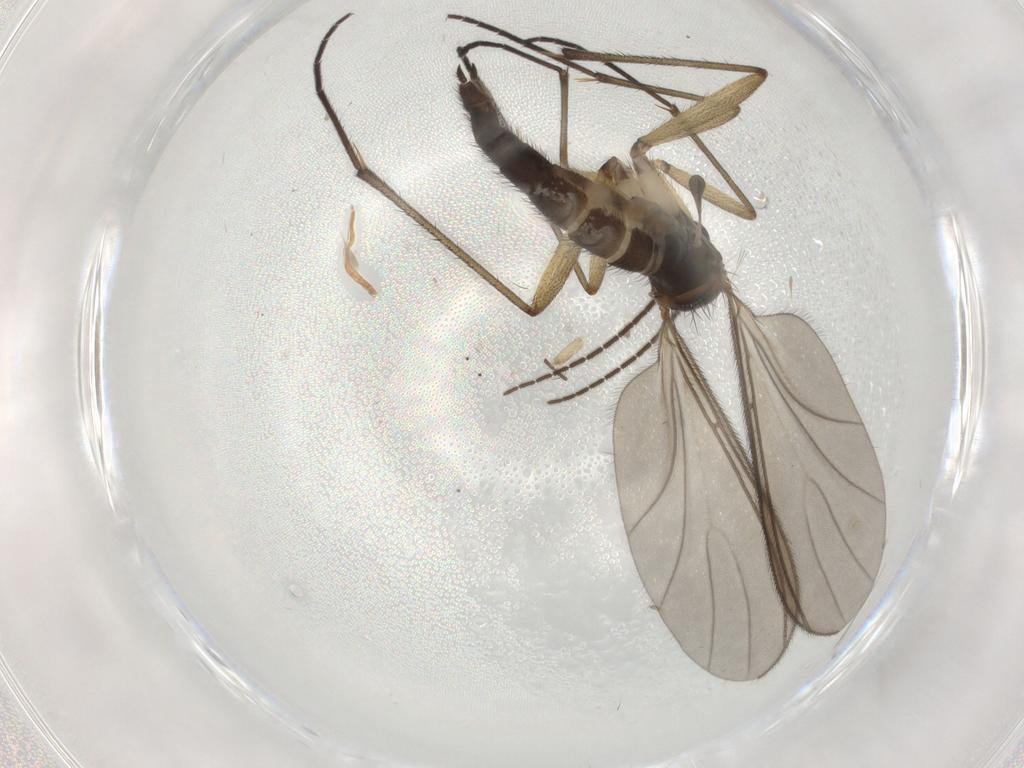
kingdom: Animalia
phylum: Arthropoda
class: Insecta
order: Diptera
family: Sciaridae
